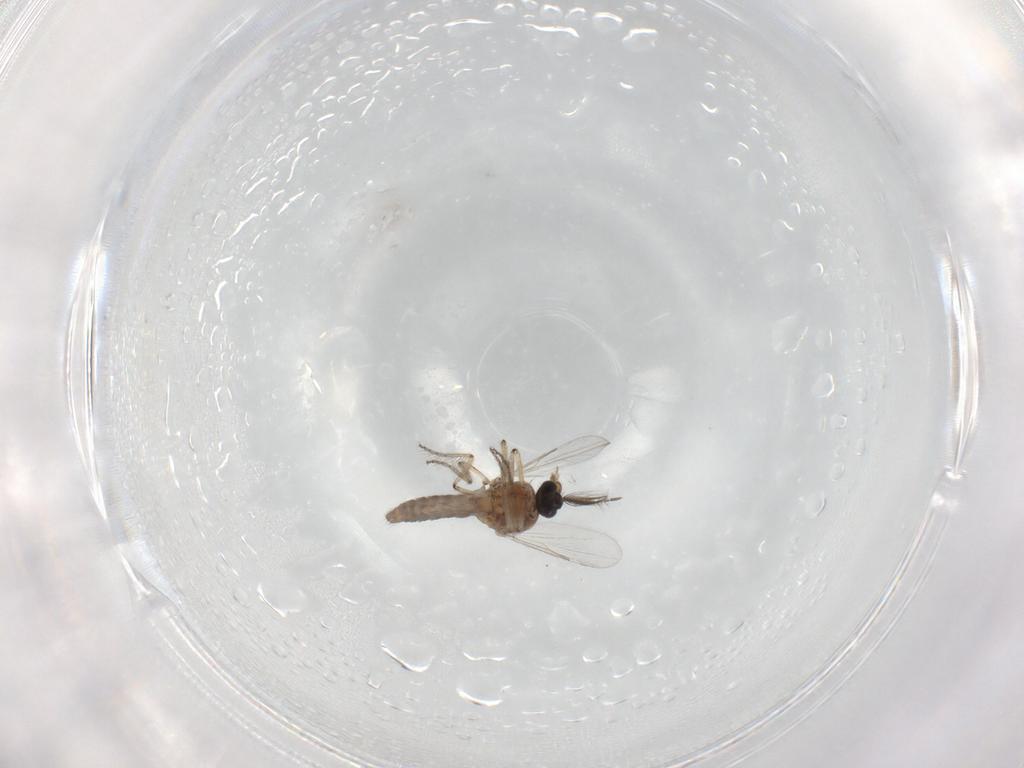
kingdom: Animalia
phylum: Arthropoda
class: Insecta
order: Diptera
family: Ceratopogonidae
